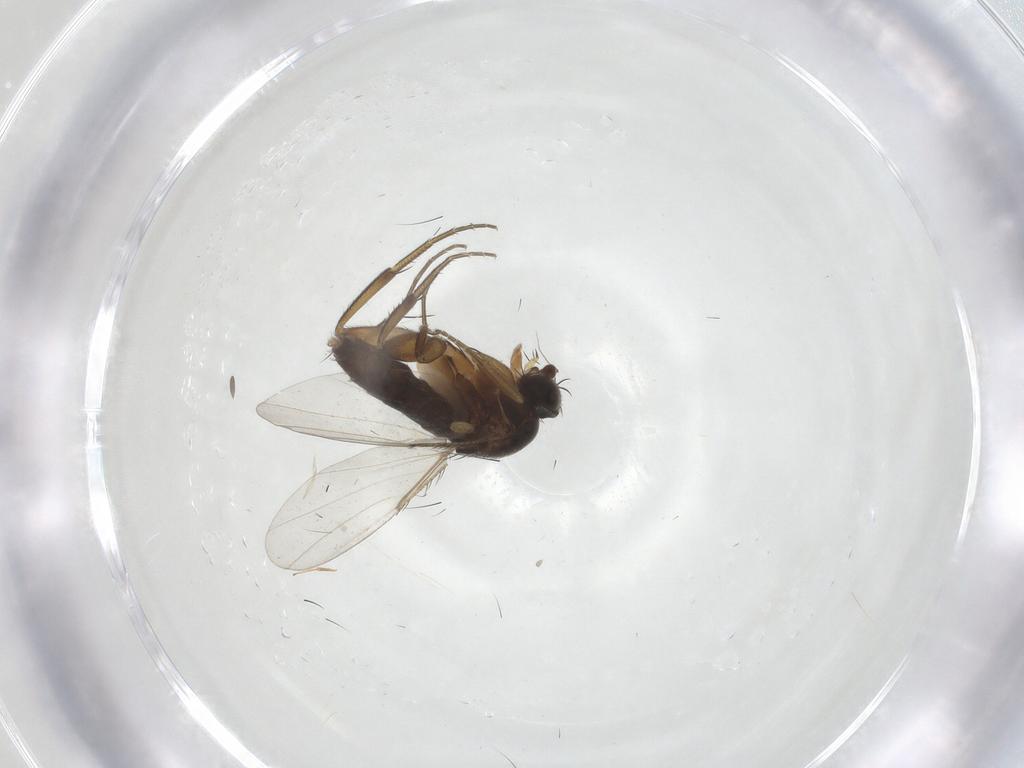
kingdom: Animalia
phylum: Arthropoda
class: Insecta
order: Diptera
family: Phoridae
